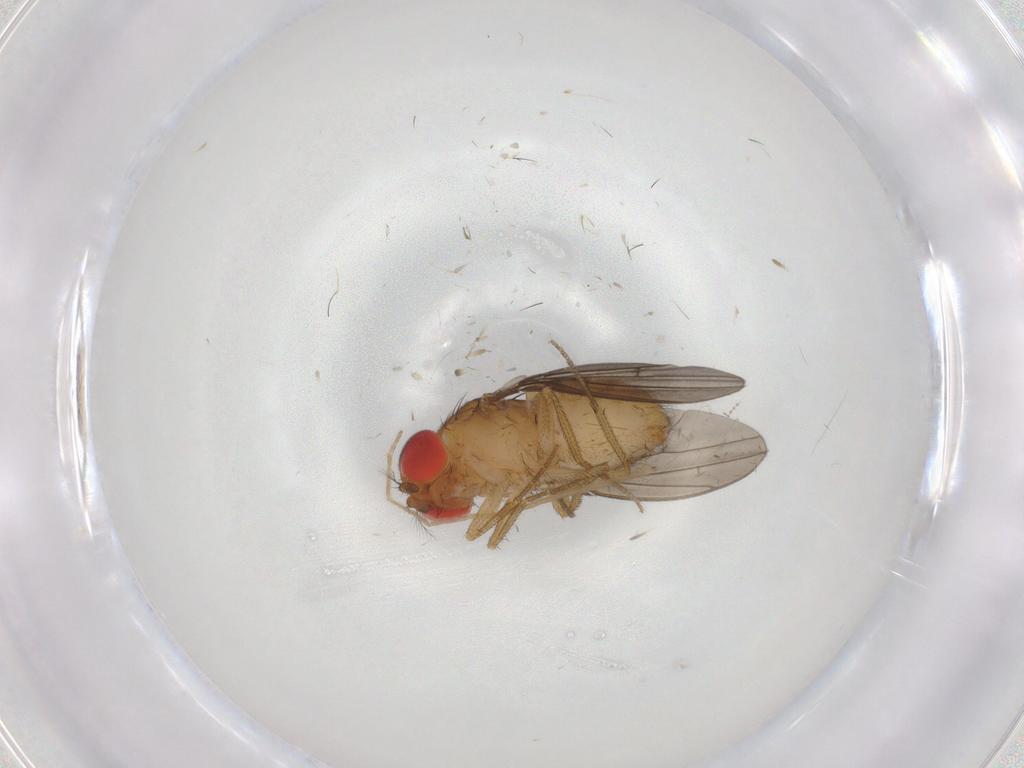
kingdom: Animalia
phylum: Arthropoda
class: Insecta
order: Diptera
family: Drosophilidae
